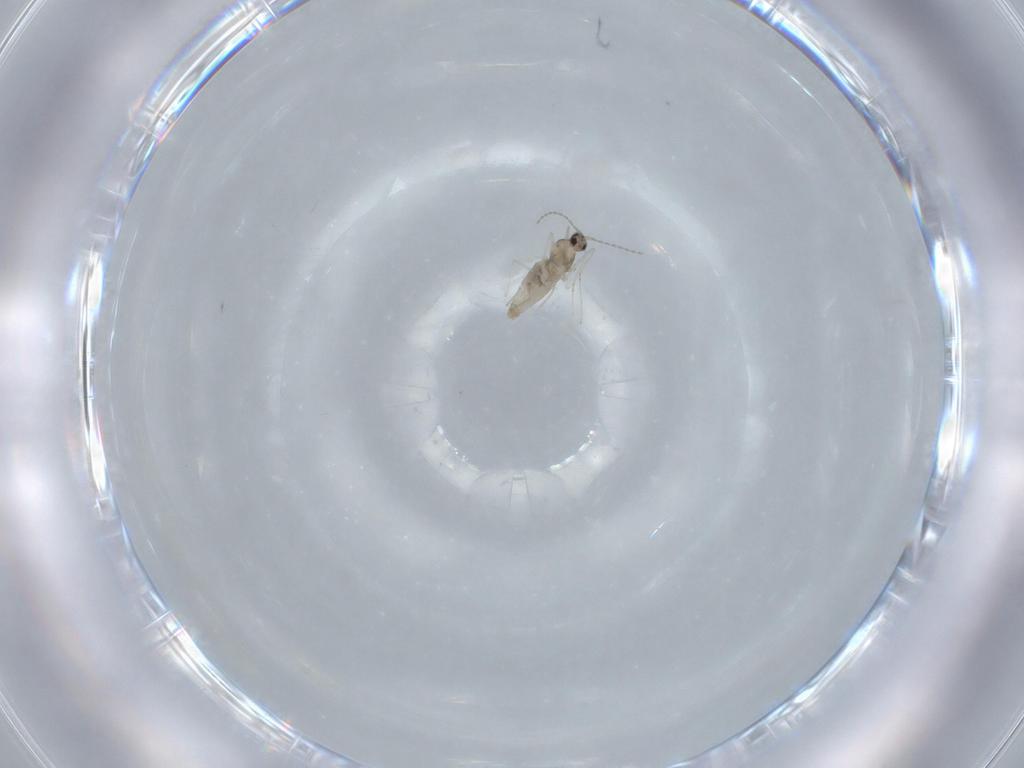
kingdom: Animalia
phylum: Arthropoda
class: Insecta
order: Diptera
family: Cecidomyiidae
